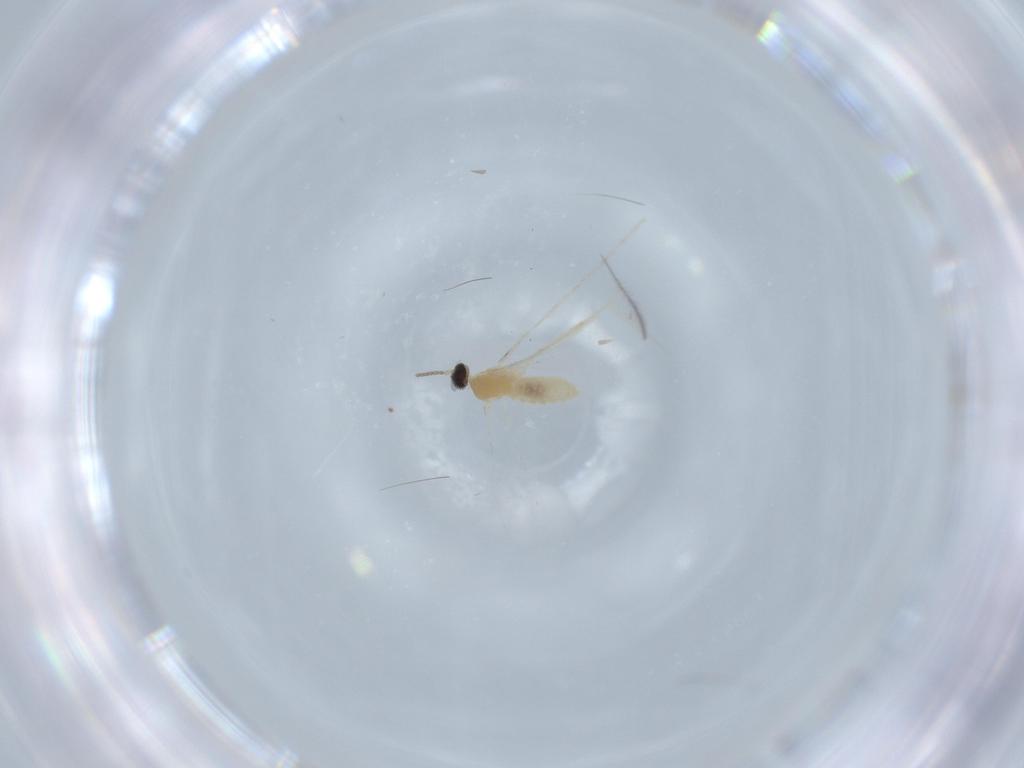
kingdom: Animalia
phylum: Arthropoda
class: Insecta
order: Diptera
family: Cecidomyiidae
